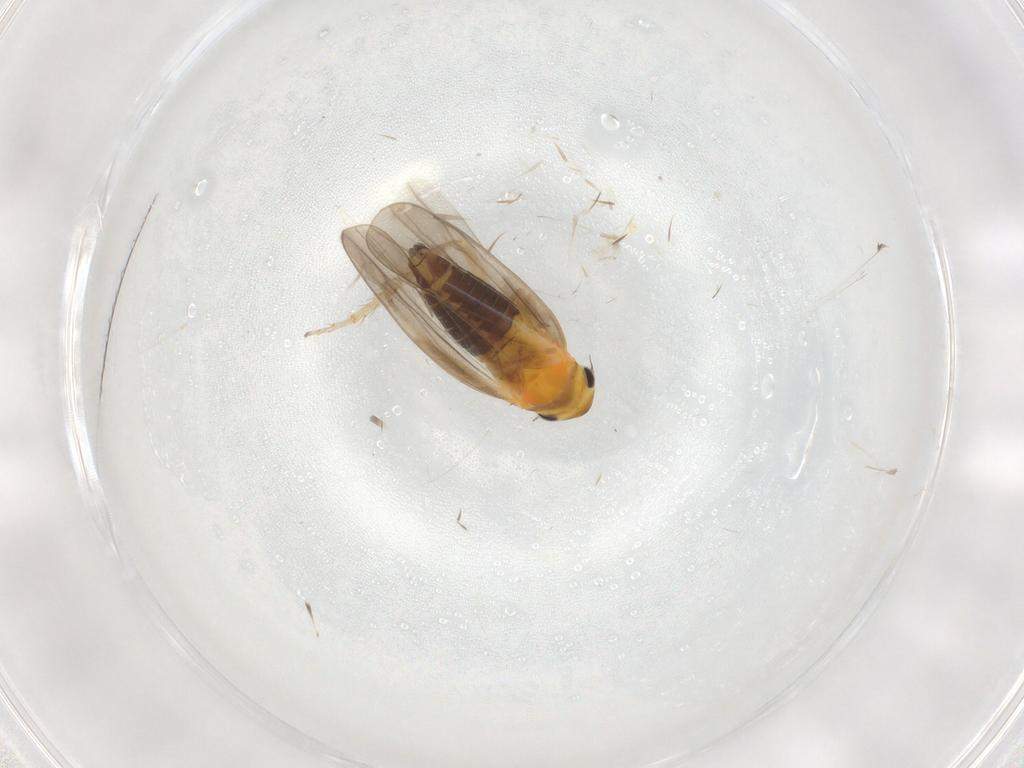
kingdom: Animalia
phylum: Arthropoda
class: Insecta
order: Hemiptera
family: Cicadellidae
